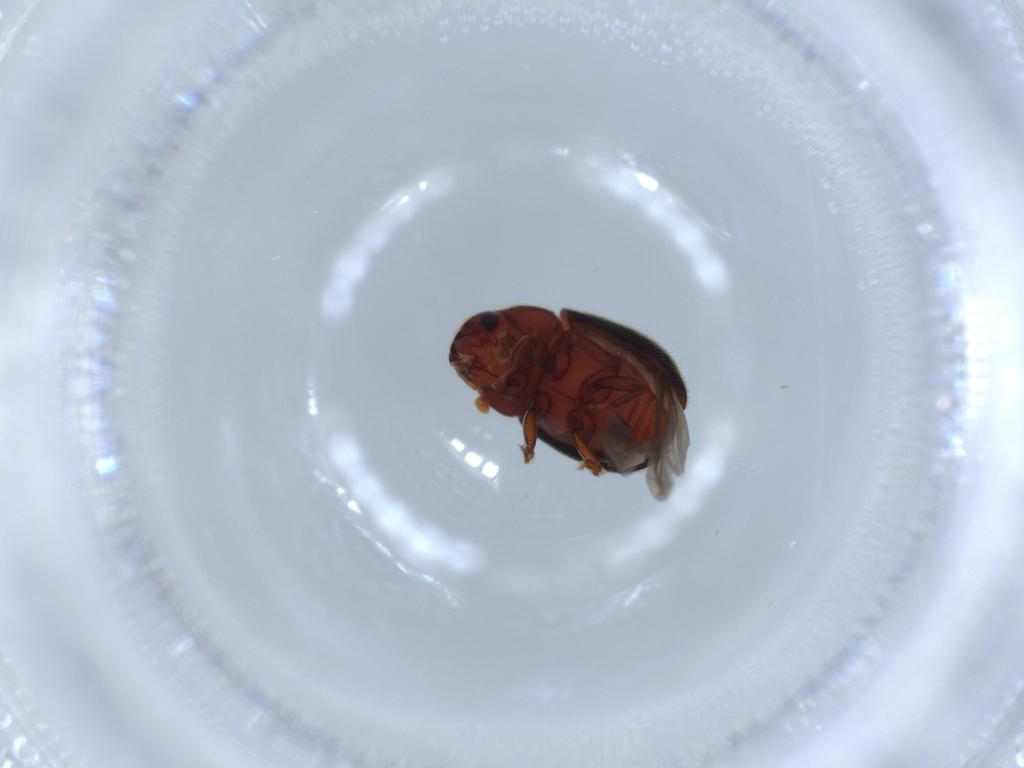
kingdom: Animalia
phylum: Arthropoda
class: Insecta
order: Coleoptera
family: Curculionidae
